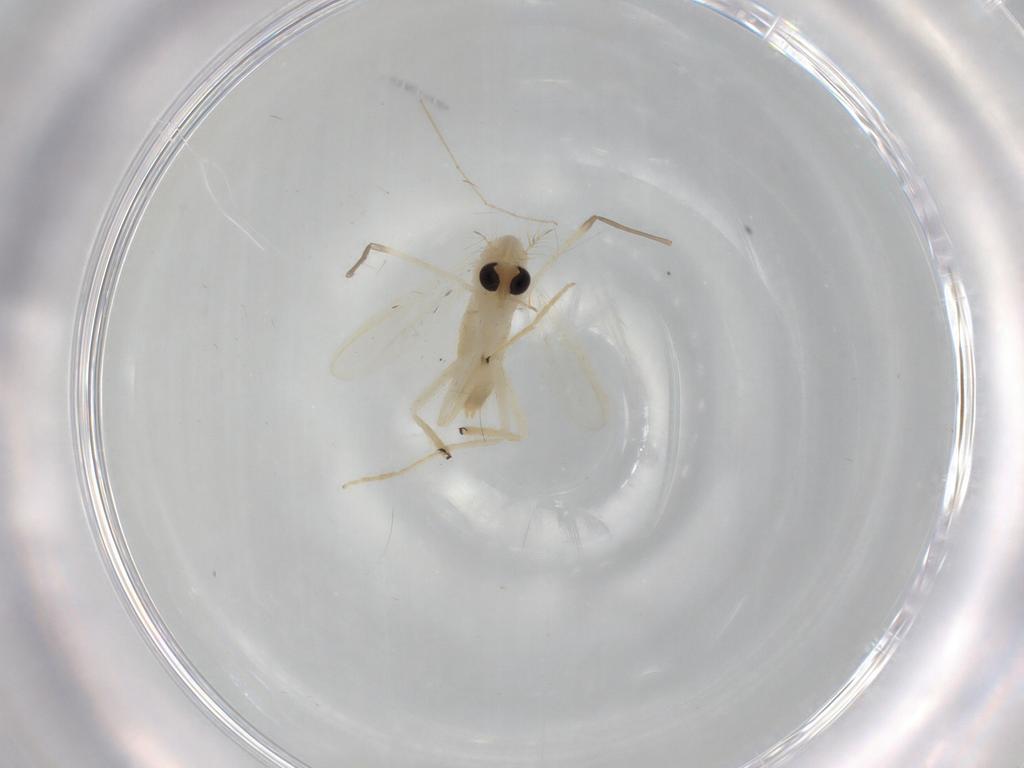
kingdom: Animalia
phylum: Arthropoda
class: Insecta
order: Diptera
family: Chironomidae
